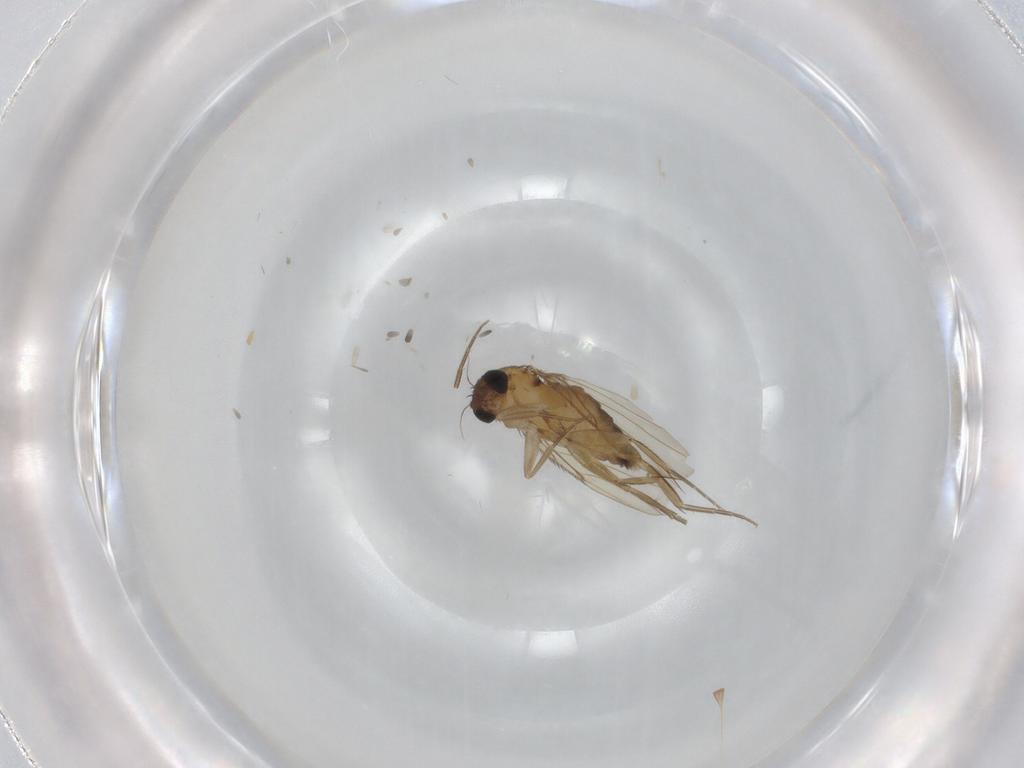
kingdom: Animalia
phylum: Arthropoda
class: Insecta
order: Diptera
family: Phoridae
